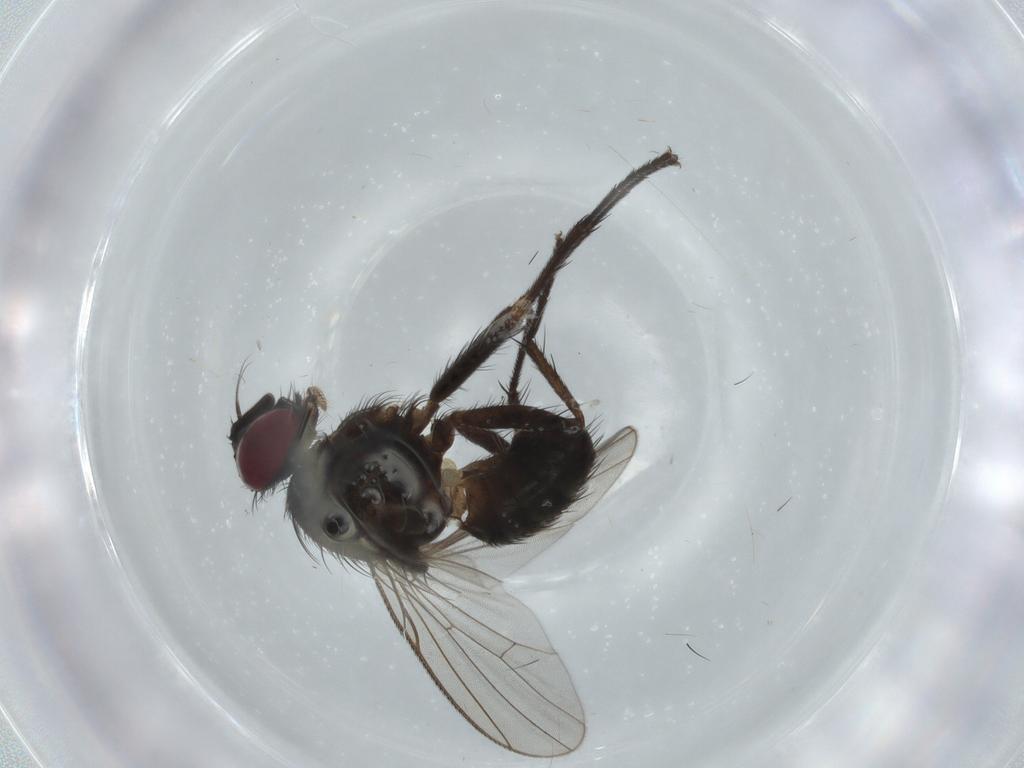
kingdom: Animalia
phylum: Arthropoda
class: Insecta
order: Diptera
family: Muscidae
